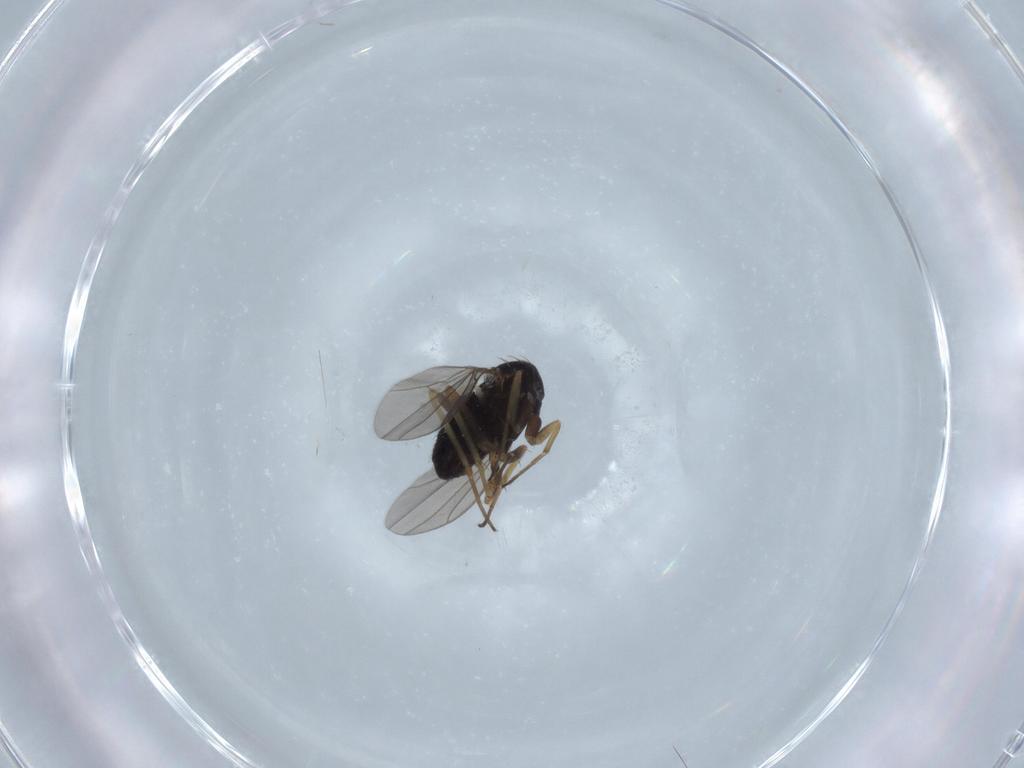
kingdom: Animalia
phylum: Arthropoda
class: Insecta
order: Diptera
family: Dolichopodidae
